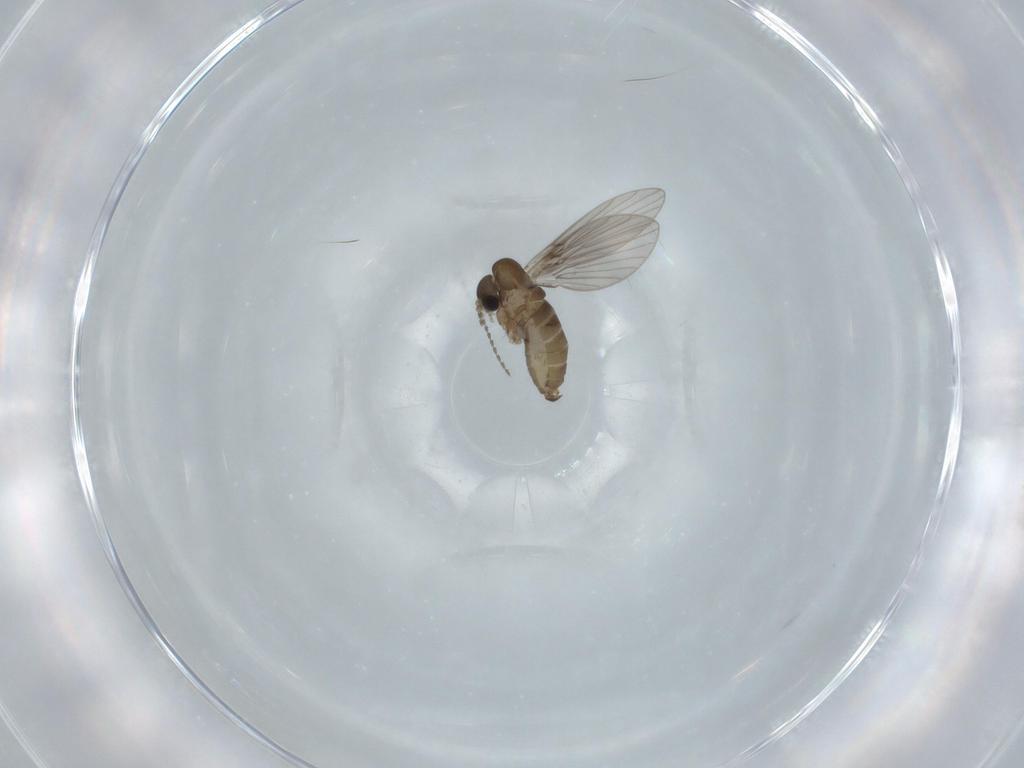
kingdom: Animalia
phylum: Arthropoda
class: Insecta
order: Diptera
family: Psychodidae
